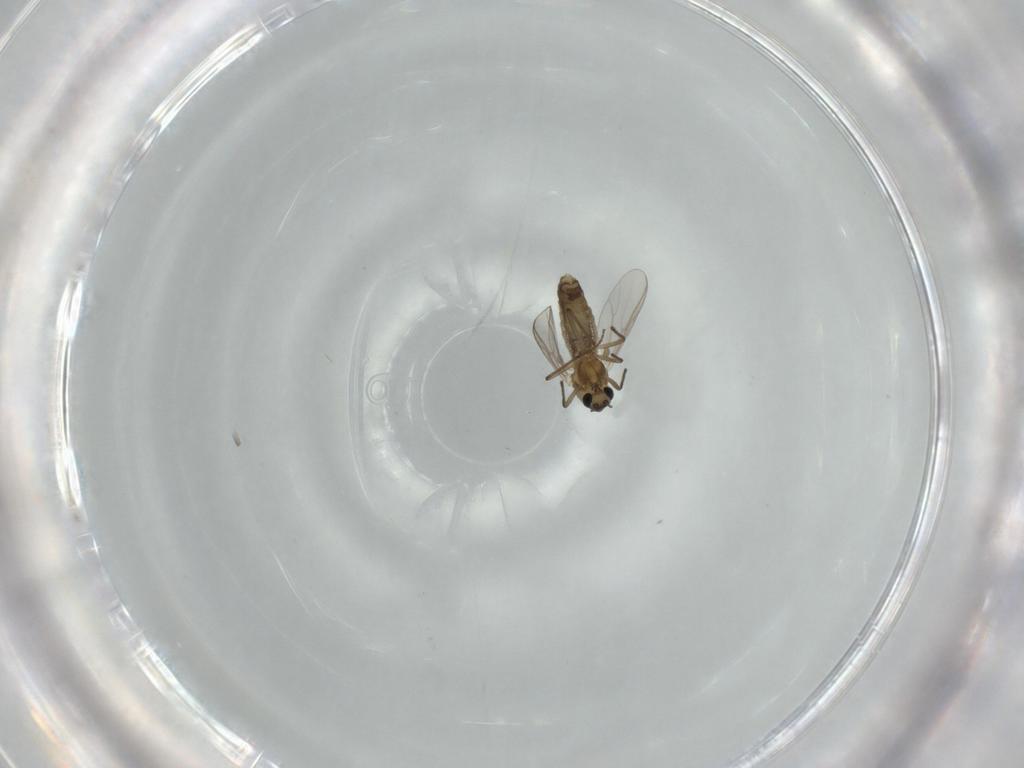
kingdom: Animalia
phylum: Arthropoda
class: Insecta
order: Diptera
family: Chironomidae
